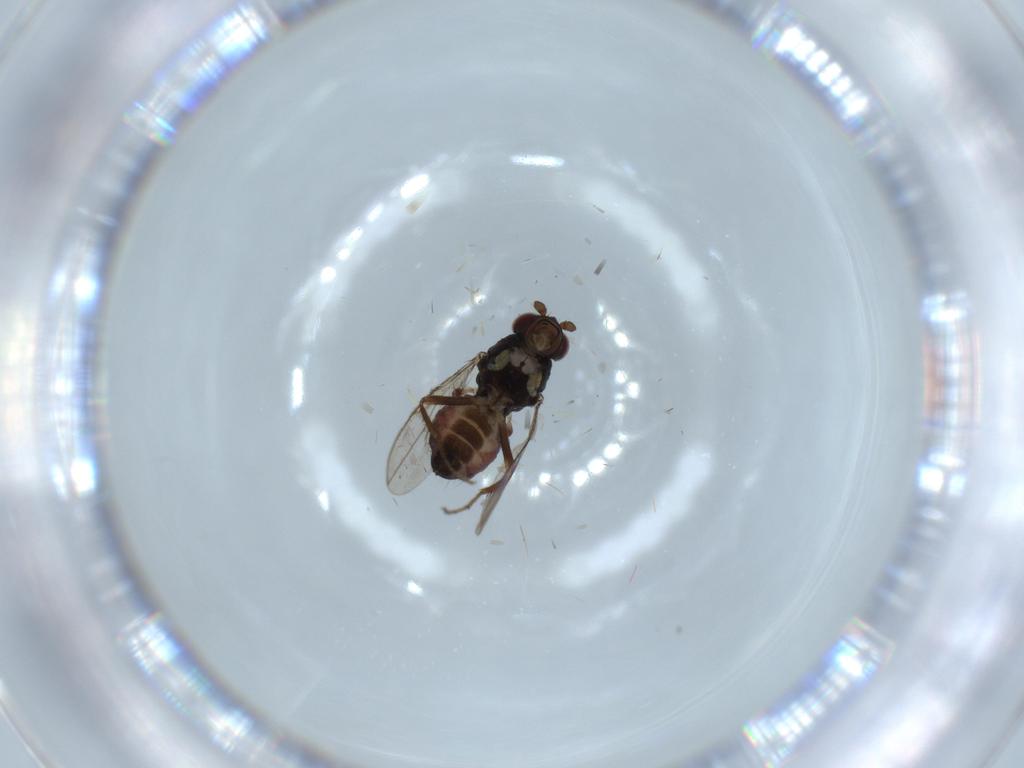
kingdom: Animalia
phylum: Arthropoda
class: Insecta
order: Diptera
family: Sphaeroceridae
